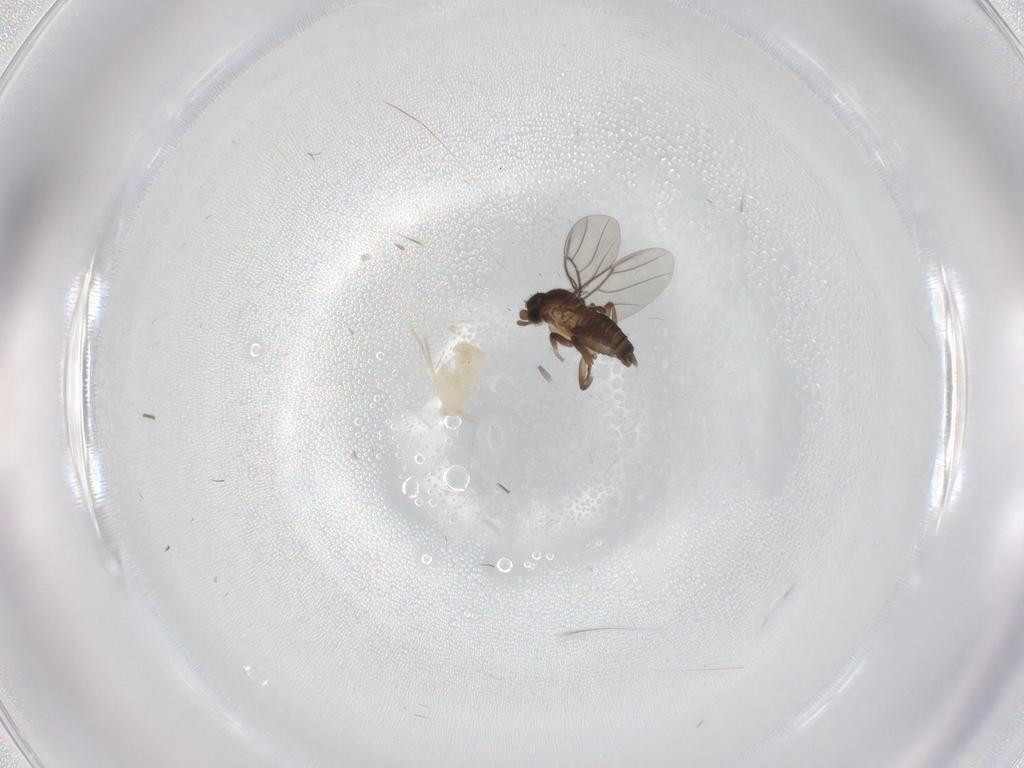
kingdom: Animalia
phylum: Arthropoda
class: Insecta
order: Diptera
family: Cecidomyiidae
